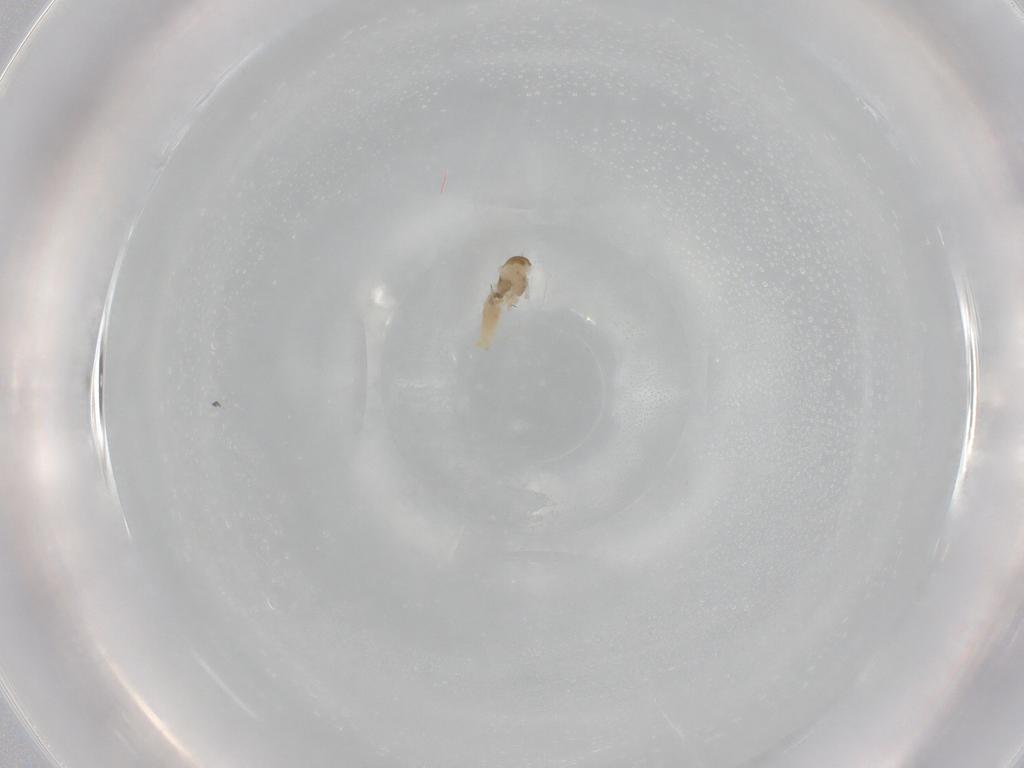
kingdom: Animalia
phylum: Arthropoda
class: Insecta
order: Diptera
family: Cecidomyiidae
